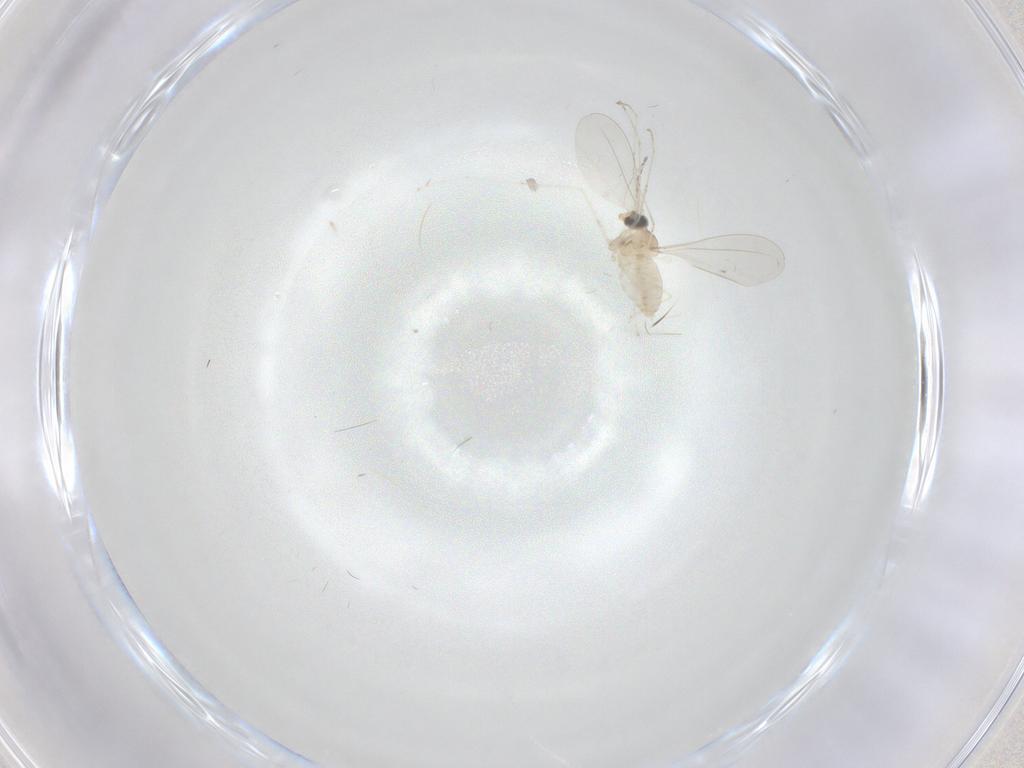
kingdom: Animalia
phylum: Arthropoda
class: Insecta
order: Diptera
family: Cecidomyiidae
